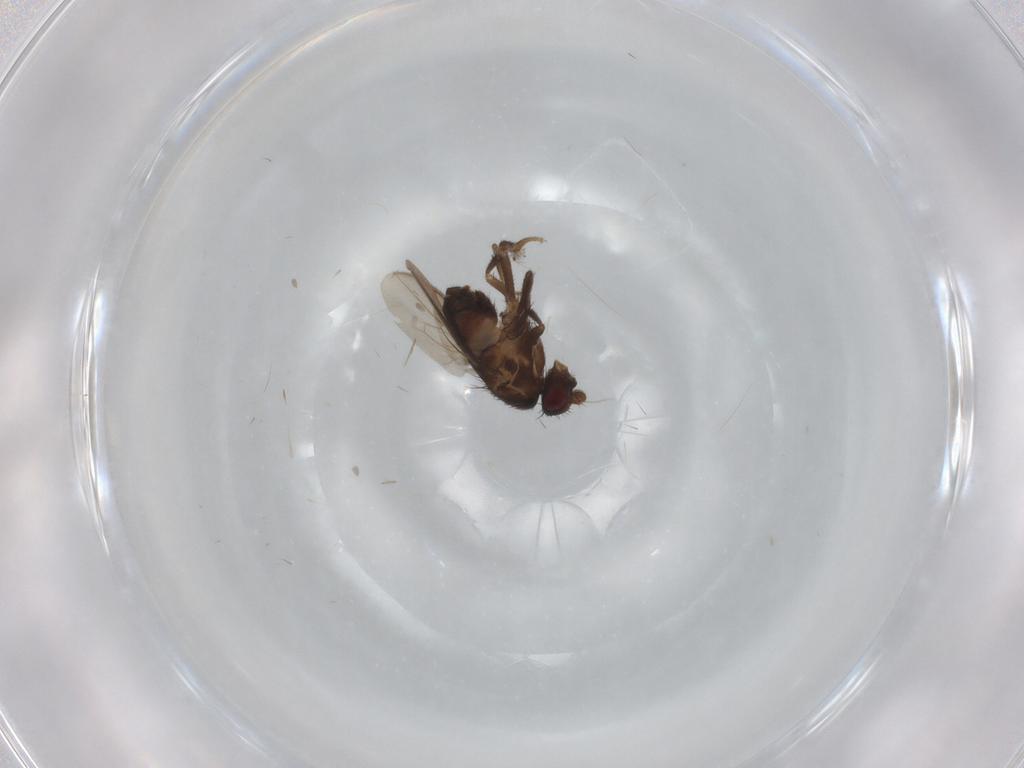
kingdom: Animalia
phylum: Arthropoda
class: Insecta
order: Diptera
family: Sphaeroceridae
